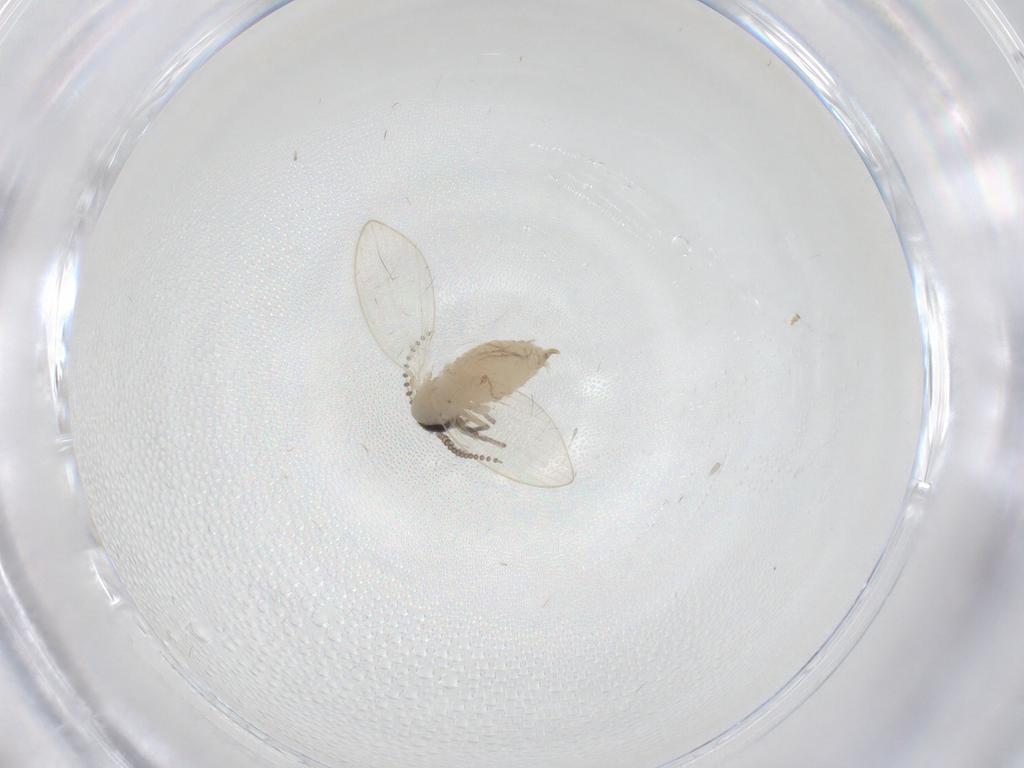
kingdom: Animalia
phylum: Arthropoda
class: Insecta
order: Diptera
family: Psychodidae
